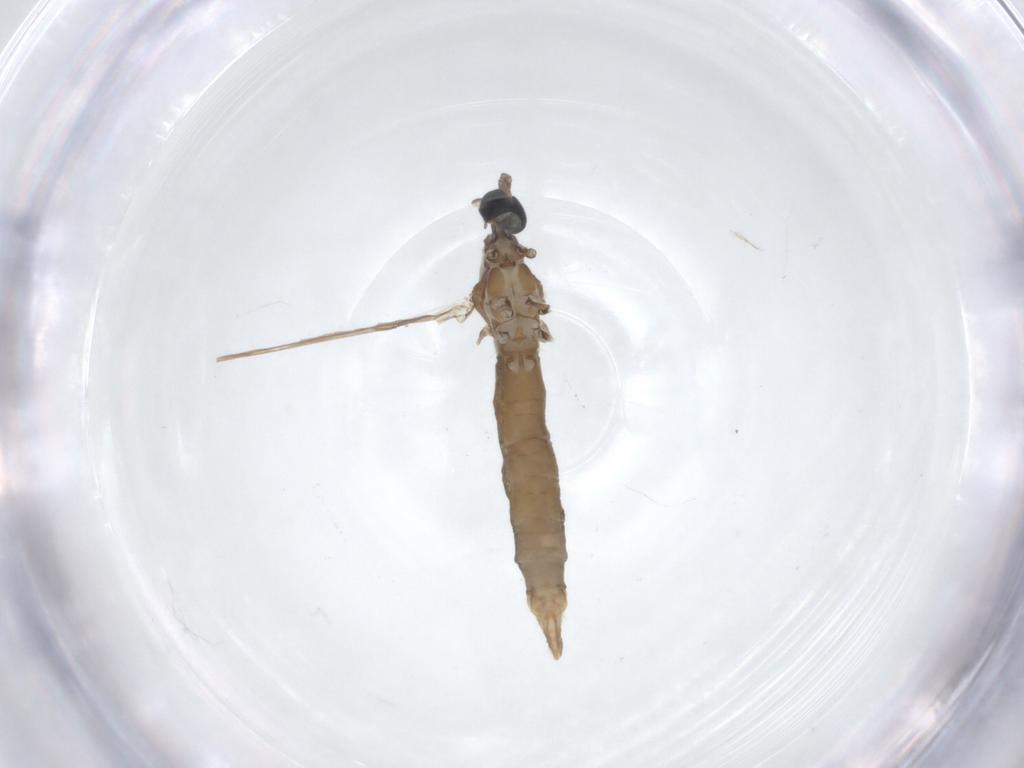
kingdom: Animalia
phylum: Arthropoda
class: Insecta
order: Diptera
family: Limoniidae
